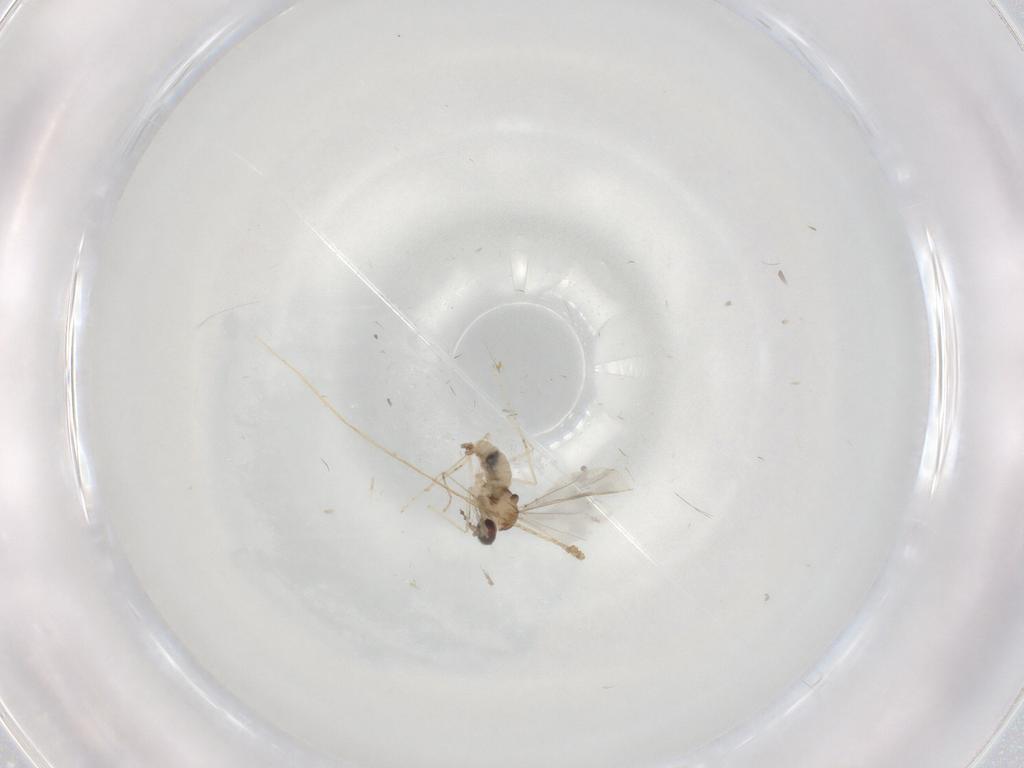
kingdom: Animalia
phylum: Arthropoda
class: Insecta
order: Diptera
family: Cecidomyiidae
